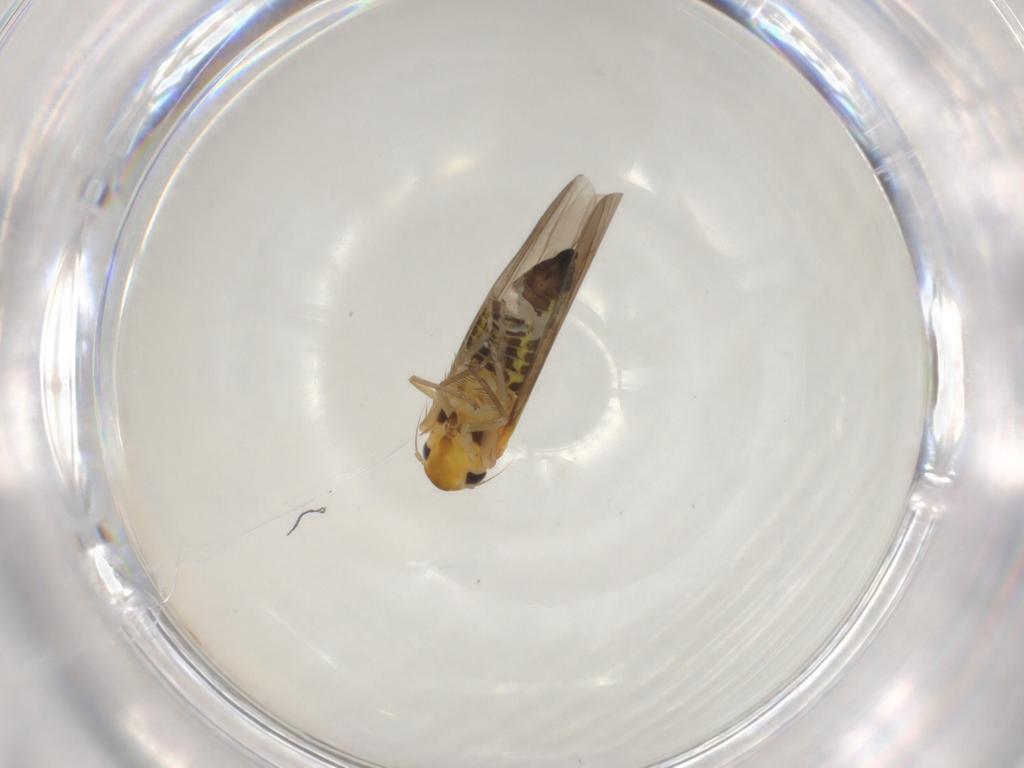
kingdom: Animalia
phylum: Arthropoda
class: Insecta
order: Hemiptera
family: Cicadellidae
